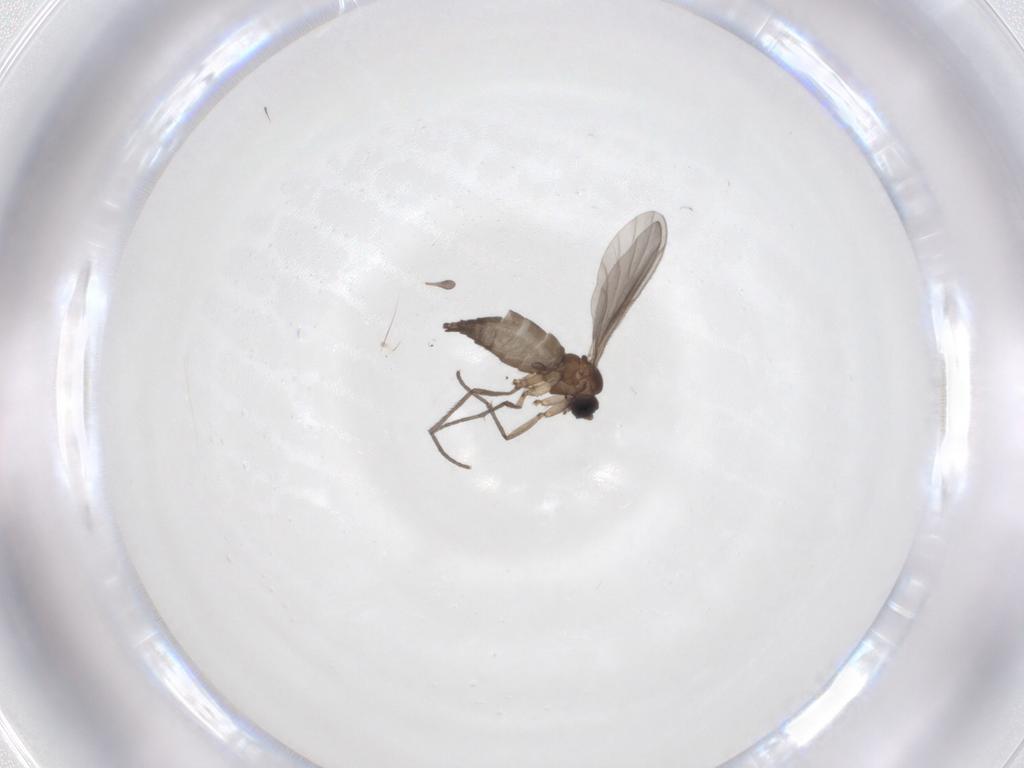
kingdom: Animalia
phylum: Arthropoda
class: Insecta
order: Diptera
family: Sciaridae
